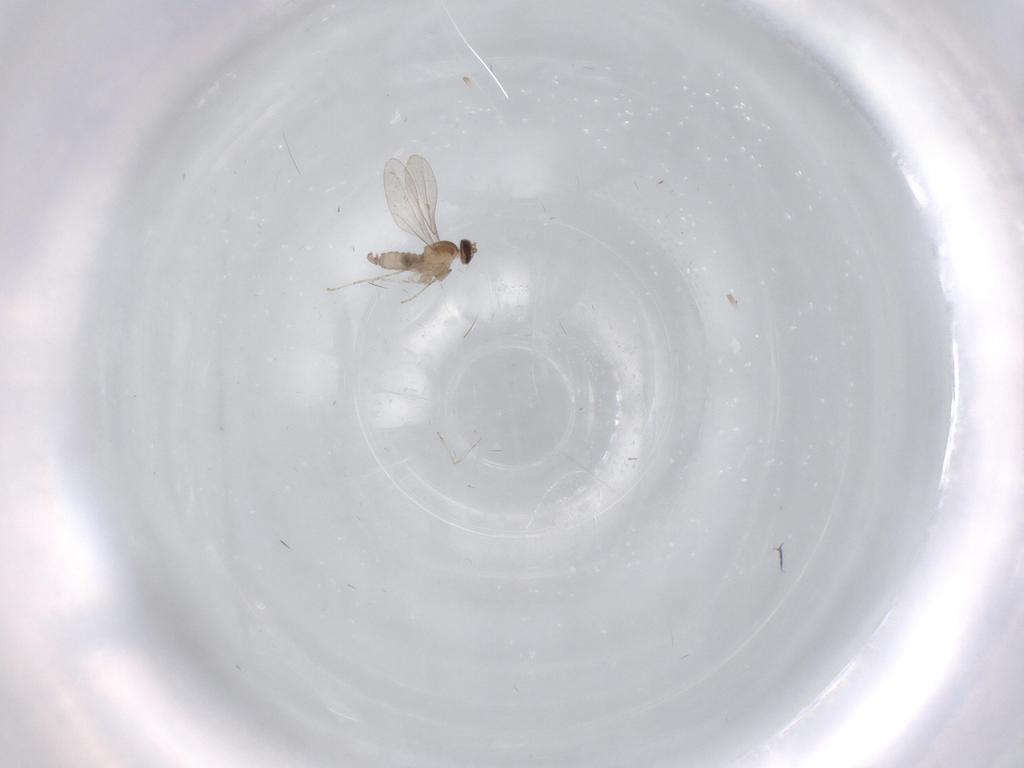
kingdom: Animalia
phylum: Arthropoda
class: Insecta
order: Diptera
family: Cecidomyiidae
